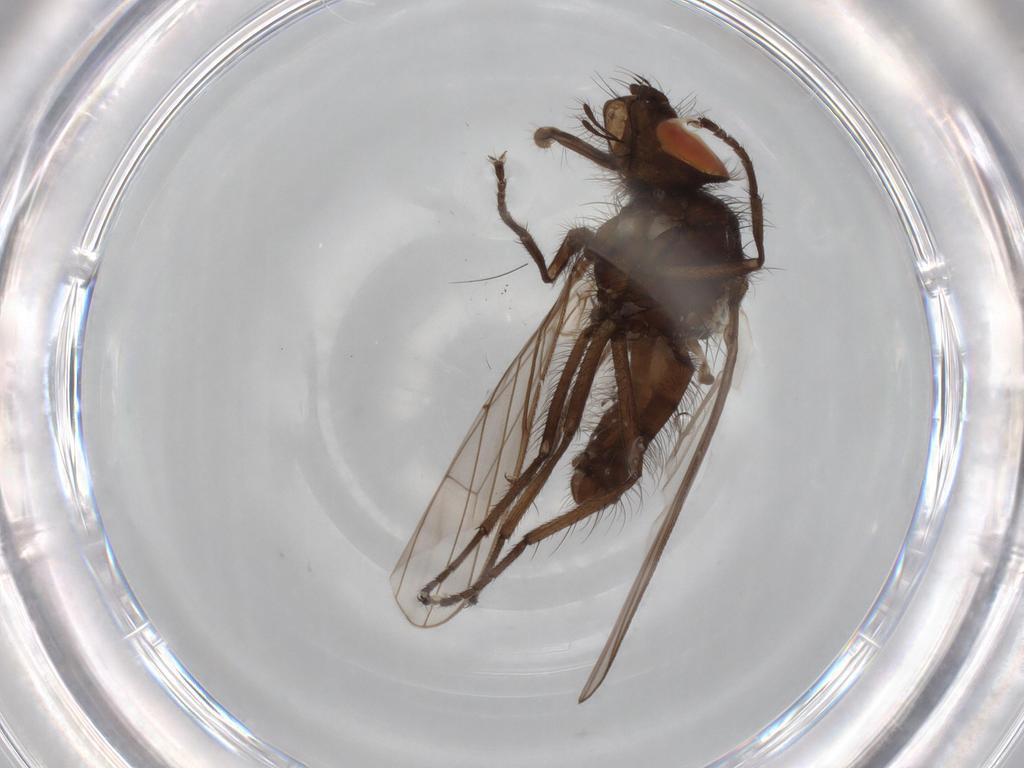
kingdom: Animalia
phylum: Arthropoda
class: Insecta
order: Diptera
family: Anthomyiidae
